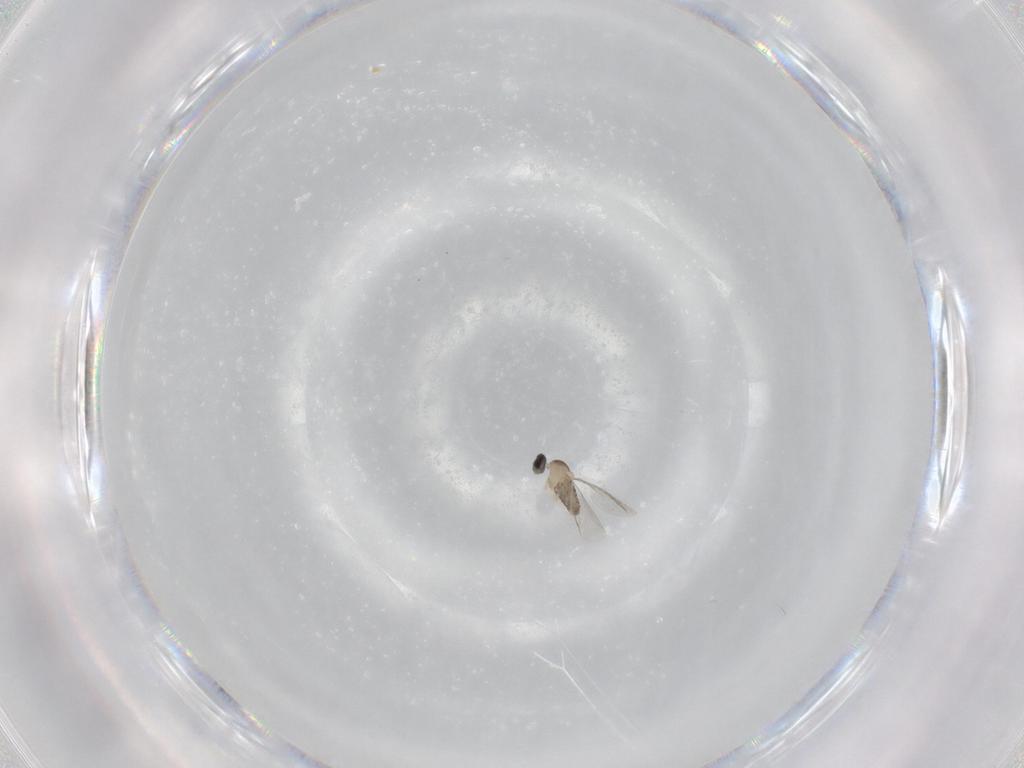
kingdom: Animalia
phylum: Arthropoda
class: Insecta
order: Diptera
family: Cecidomyiidae
